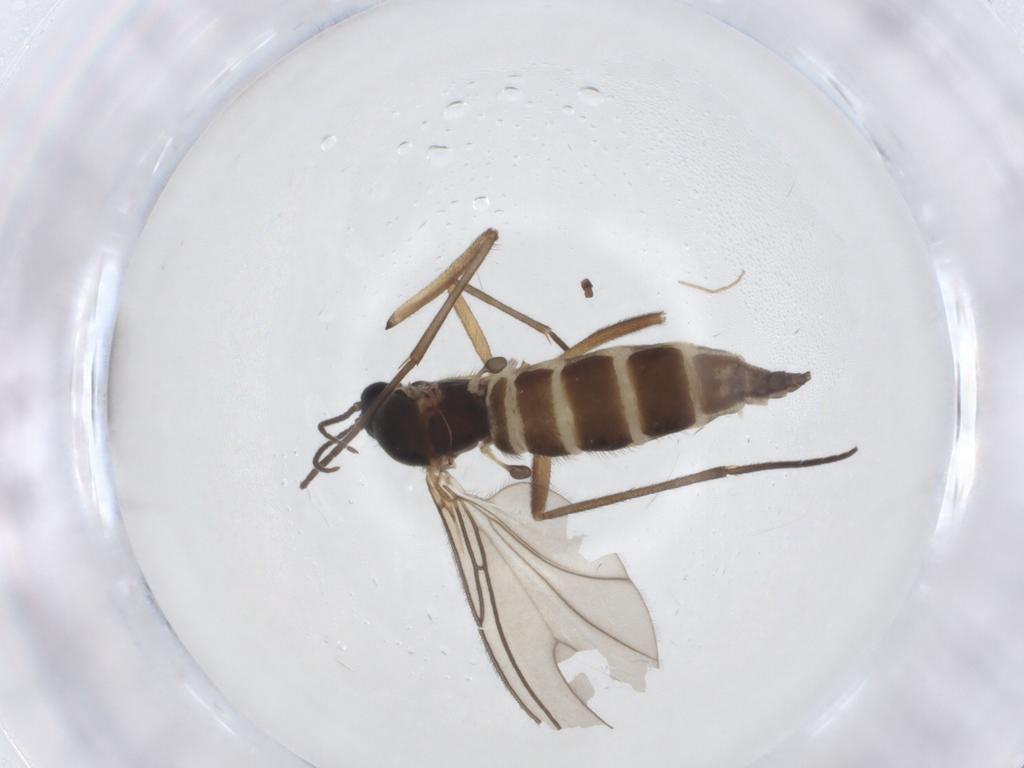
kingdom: Animalia
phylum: Arthropoda
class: Insecta
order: Diptera
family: Sciaridae
